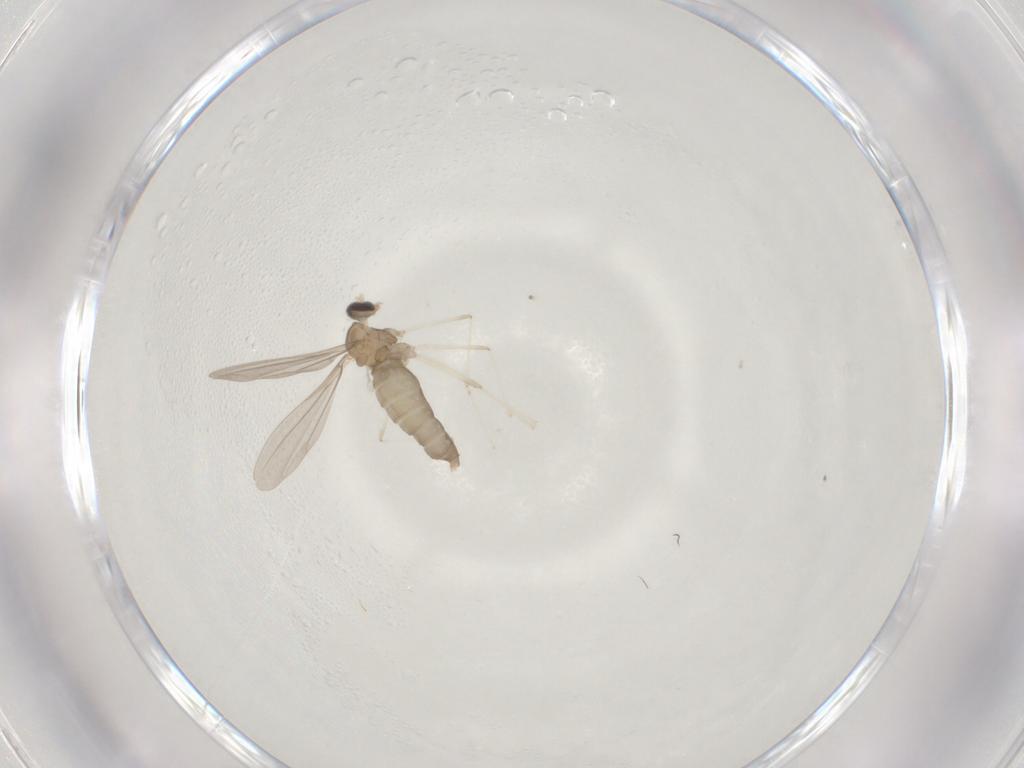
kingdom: Animalia
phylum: Arthropoda
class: Insecta
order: Diptera
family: Cecidomyiidae
